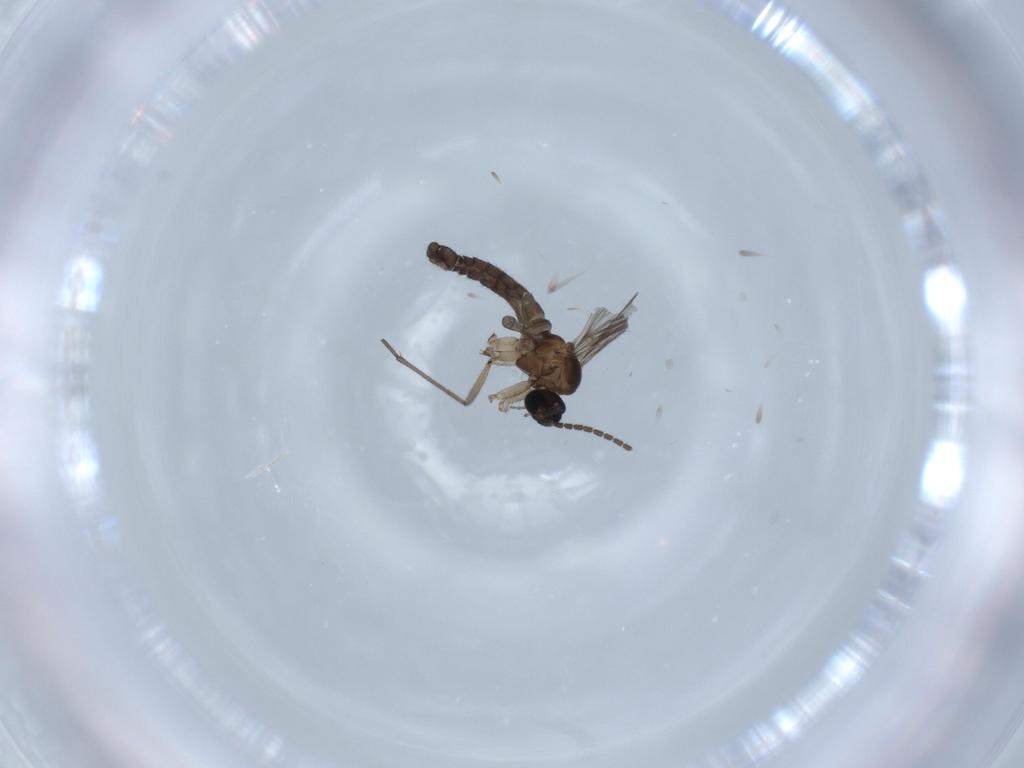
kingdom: Animalia
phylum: Arthropoda
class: Insecta
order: Diptera
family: Sciaridae
